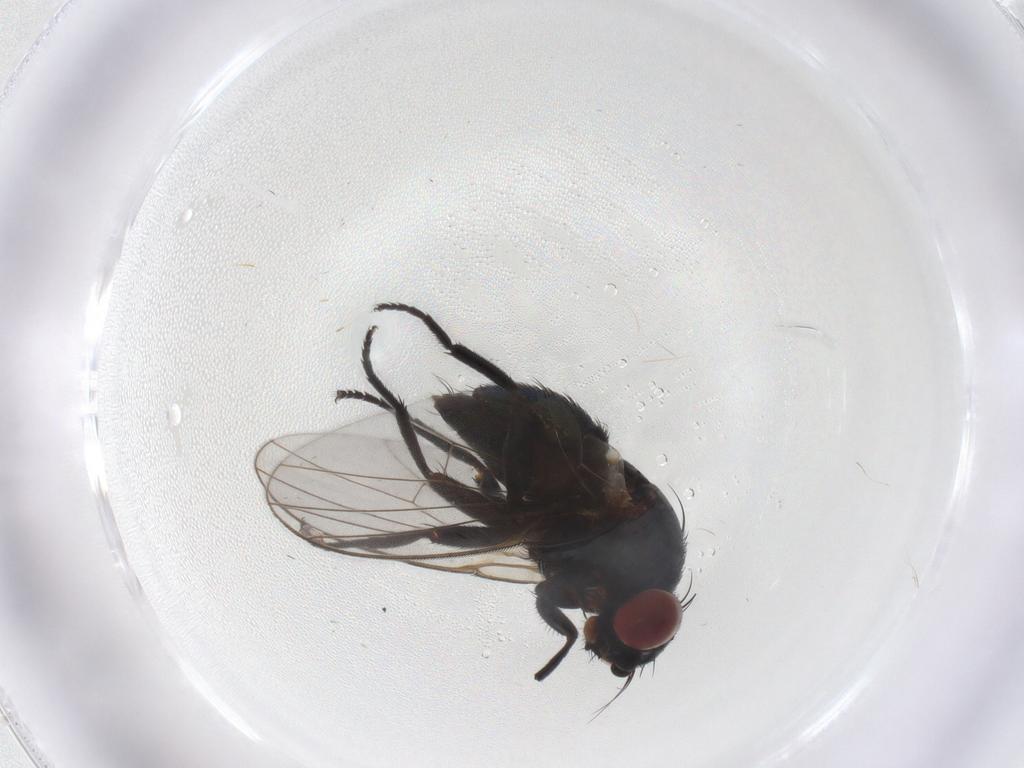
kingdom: Animalia
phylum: Arthropoda
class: Insecta
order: Diptera
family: Agromyzidae
